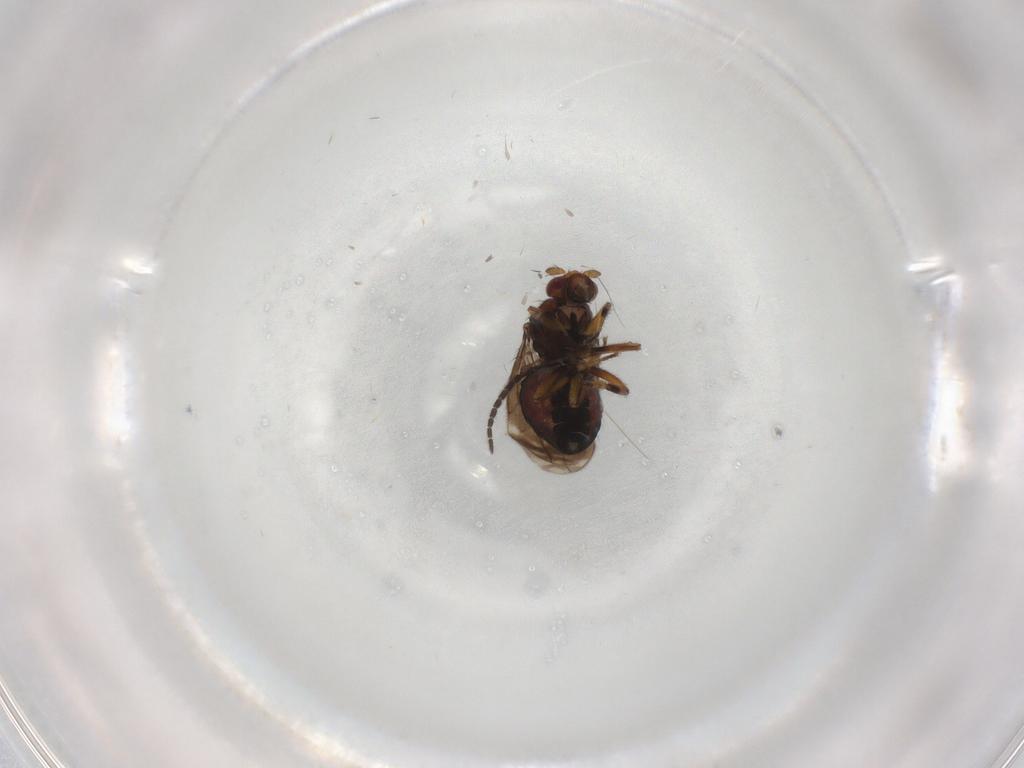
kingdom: Animalia
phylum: Arthropoda
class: Insecta
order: Diptera
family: Sphaeroceridae
